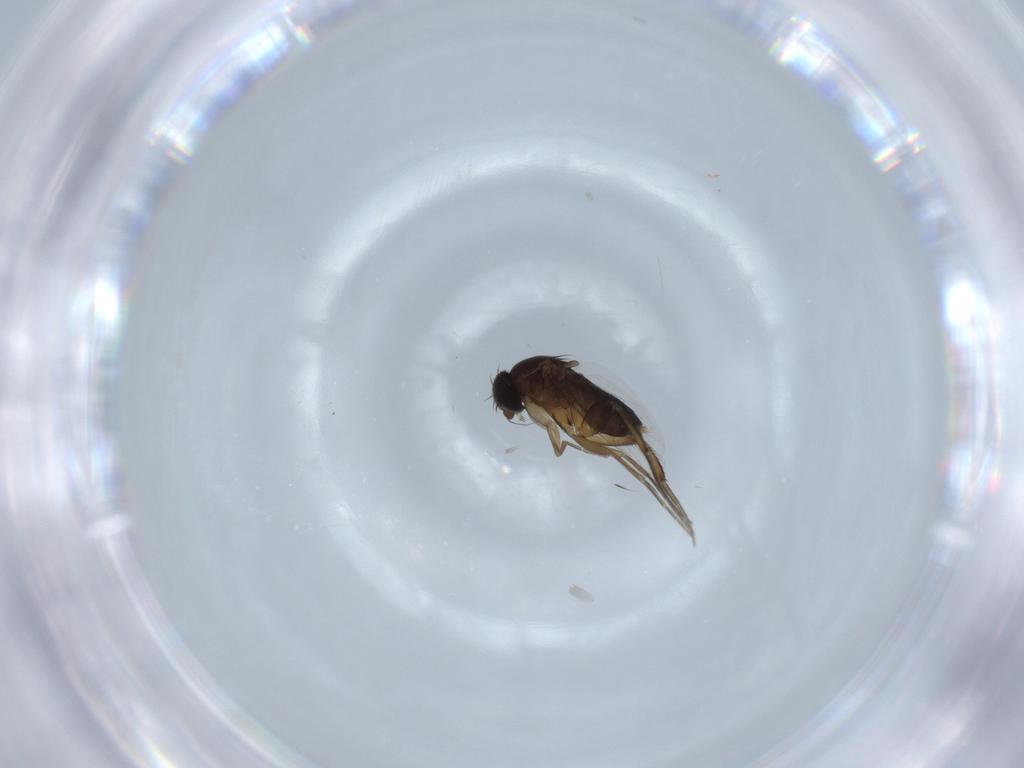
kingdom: Animalia
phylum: Arthropoda
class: Insecta
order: Diptera
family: Phoridae
